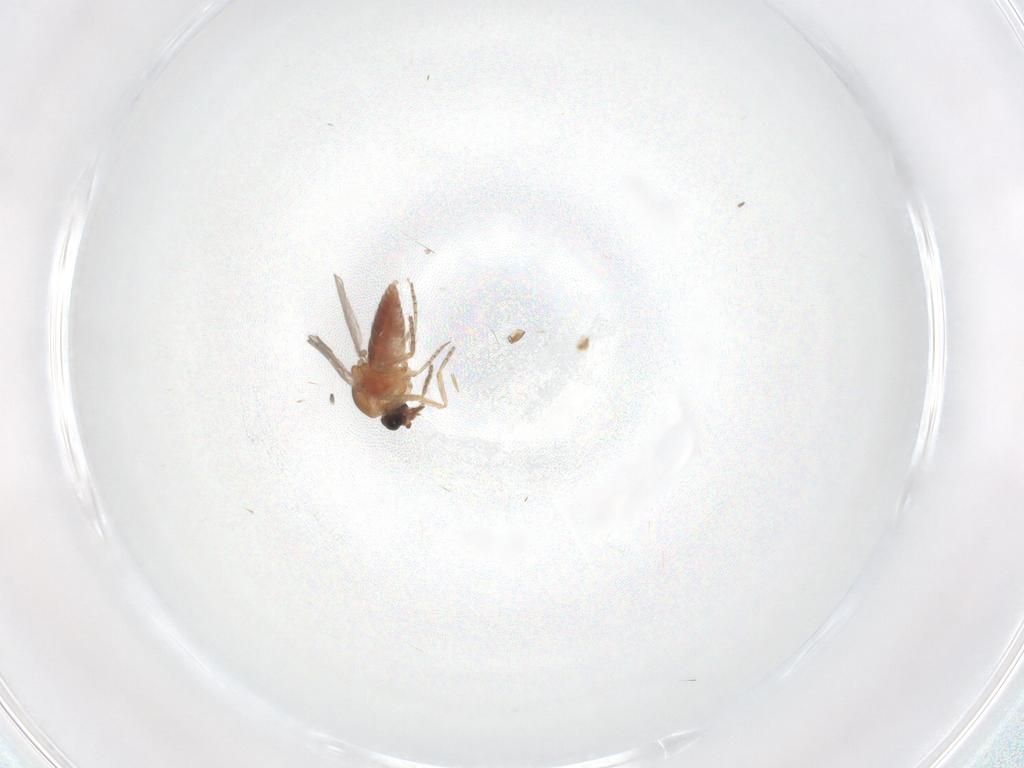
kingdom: Animalia
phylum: Arthropoda
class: Insecta
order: Diptera
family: Ceratopogonidae
